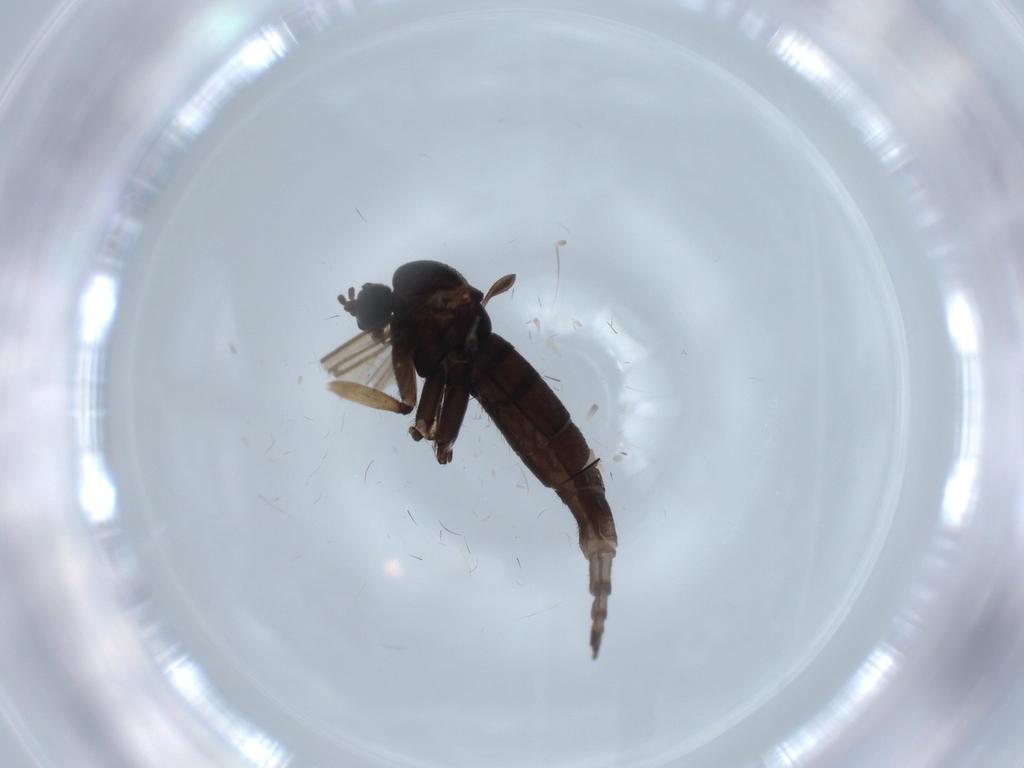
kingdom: Animalia
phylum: Arthropoda
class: Insecta
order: Diptera
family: Sciaridae
